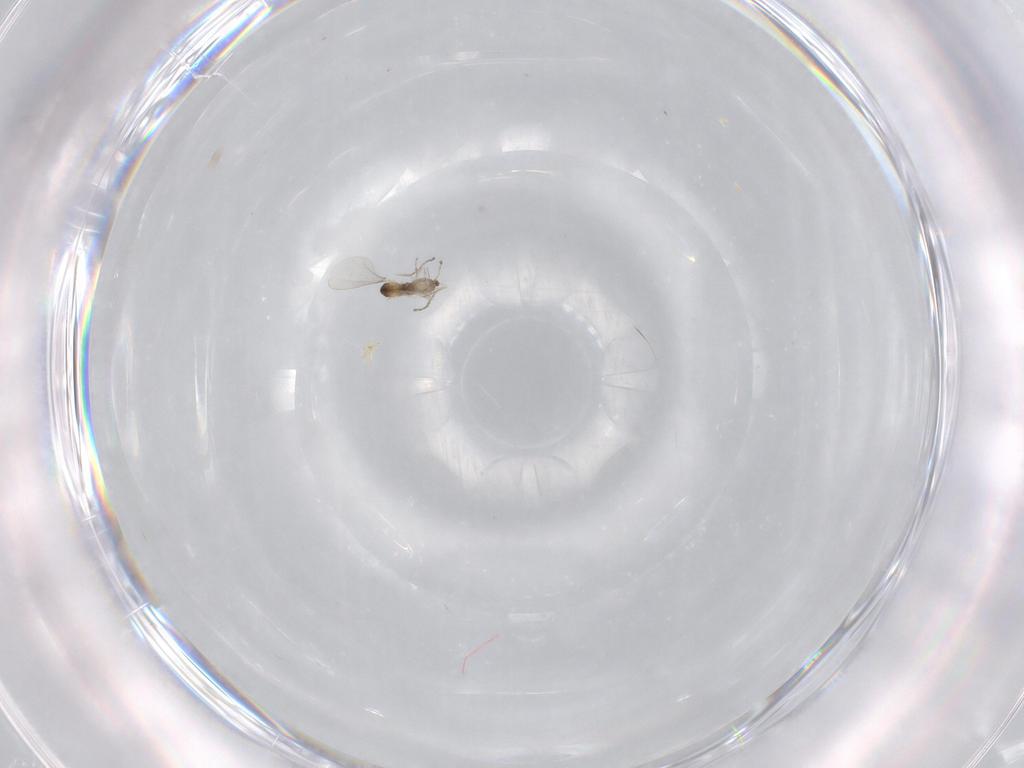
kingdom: Animalia
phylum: Arthropoda
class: Insecta
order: Diptera
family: Cecidomyiidae
